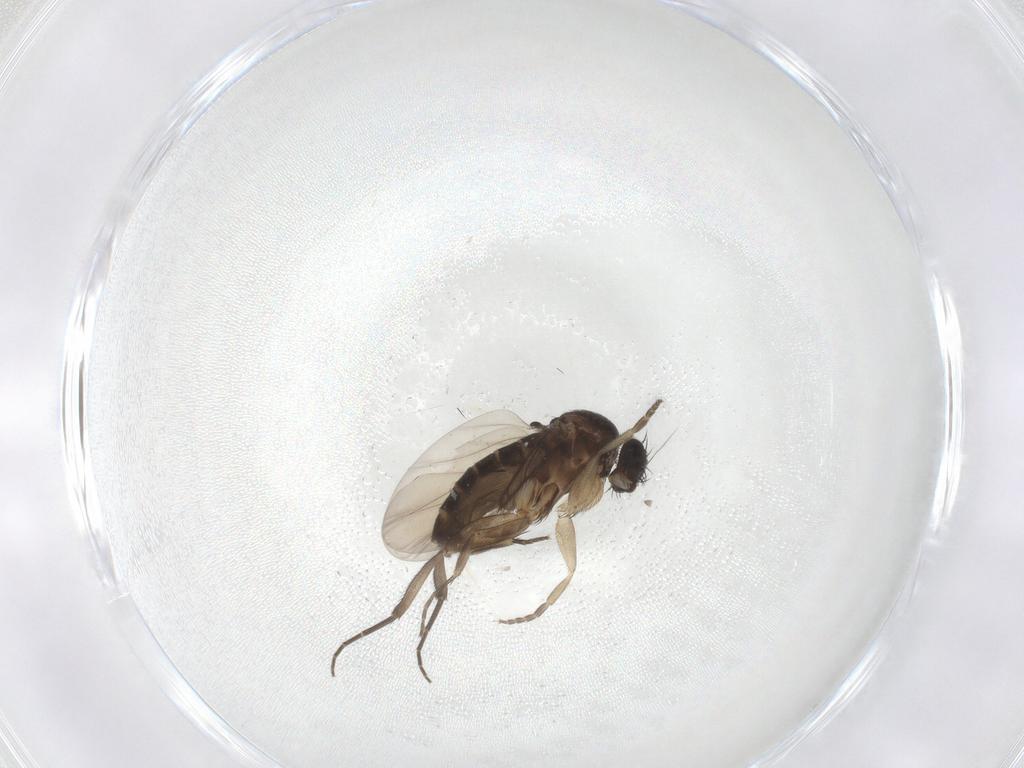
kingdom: Animalia
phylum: Arthropoda
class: Insecta
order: Diptera
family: Phoridae
